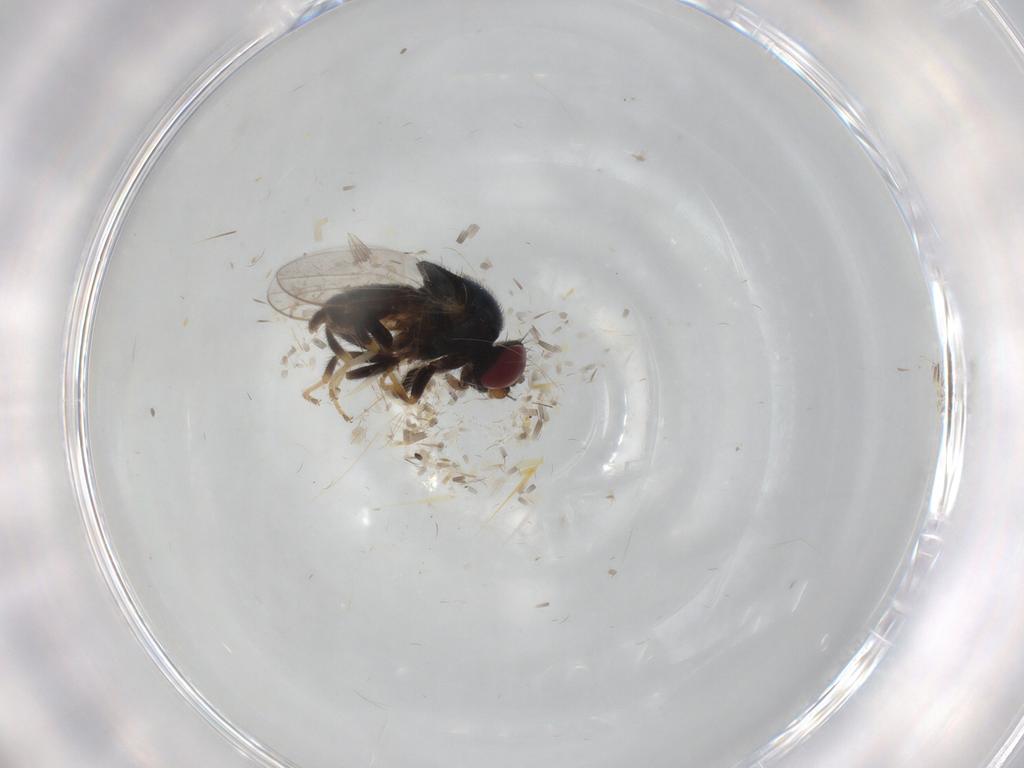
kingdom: Animalia
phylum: Arthropoda
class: Insecta
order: Diptera
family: Chloropidae
